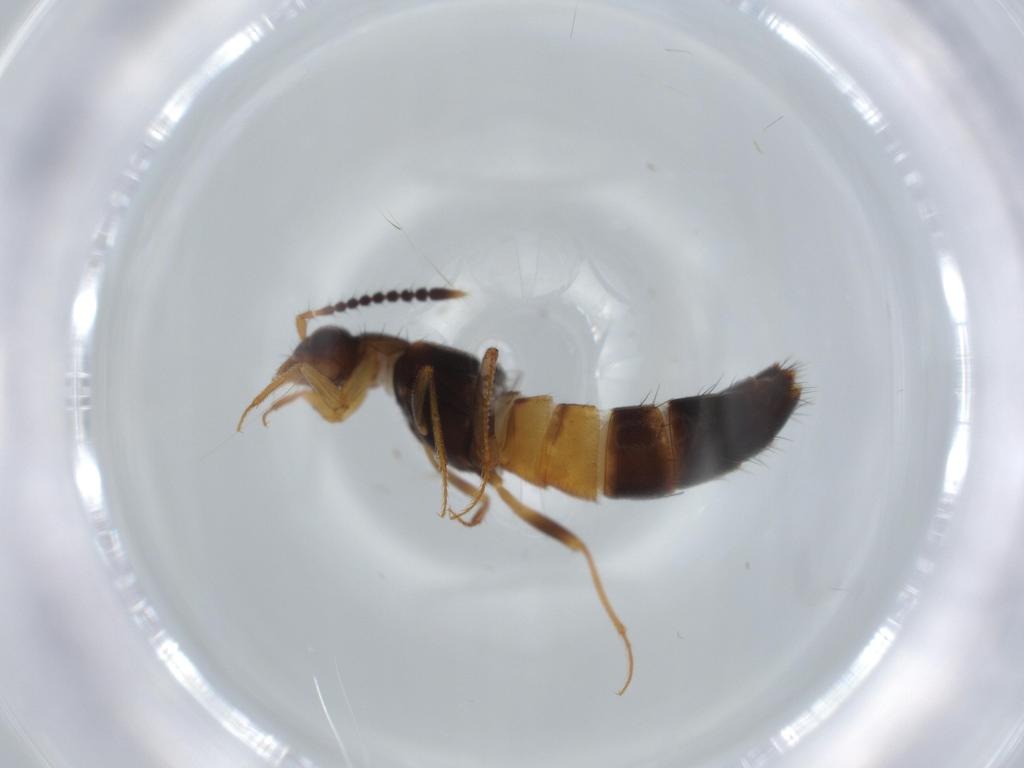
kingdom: Animalia
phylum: Arthropoda
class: Insecta
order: Coleoptera
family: Staphylinidae
